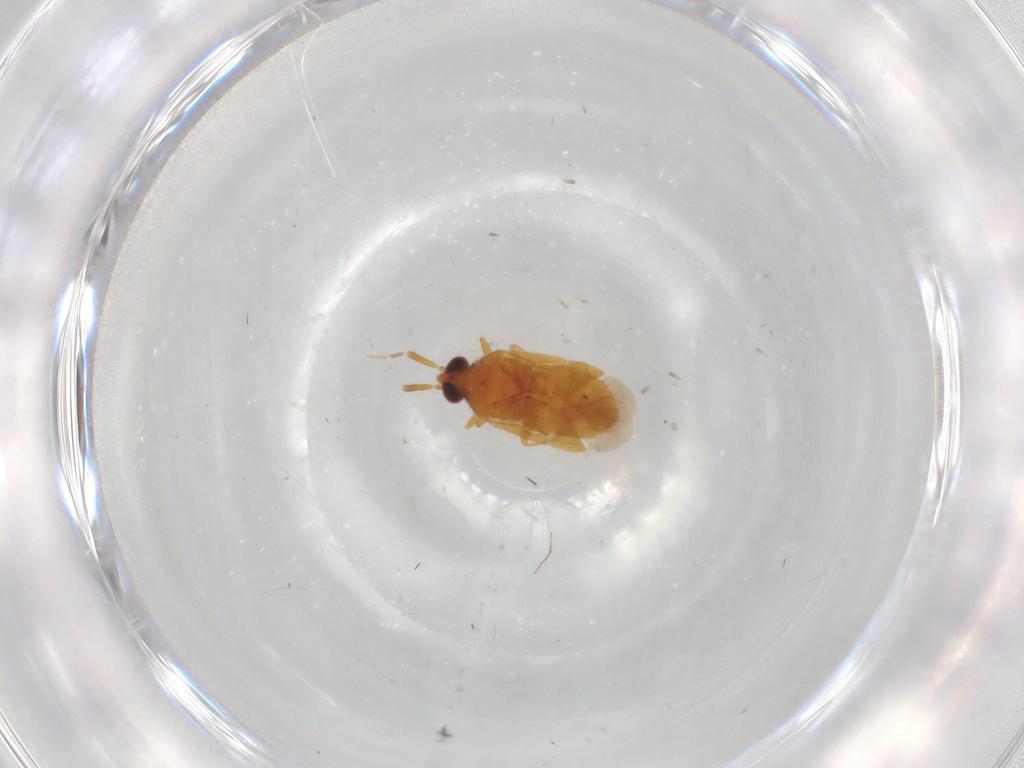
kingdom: Animalia
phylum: Arthropoda
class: Insecta
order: Hemiptera
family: Anthocoridae
